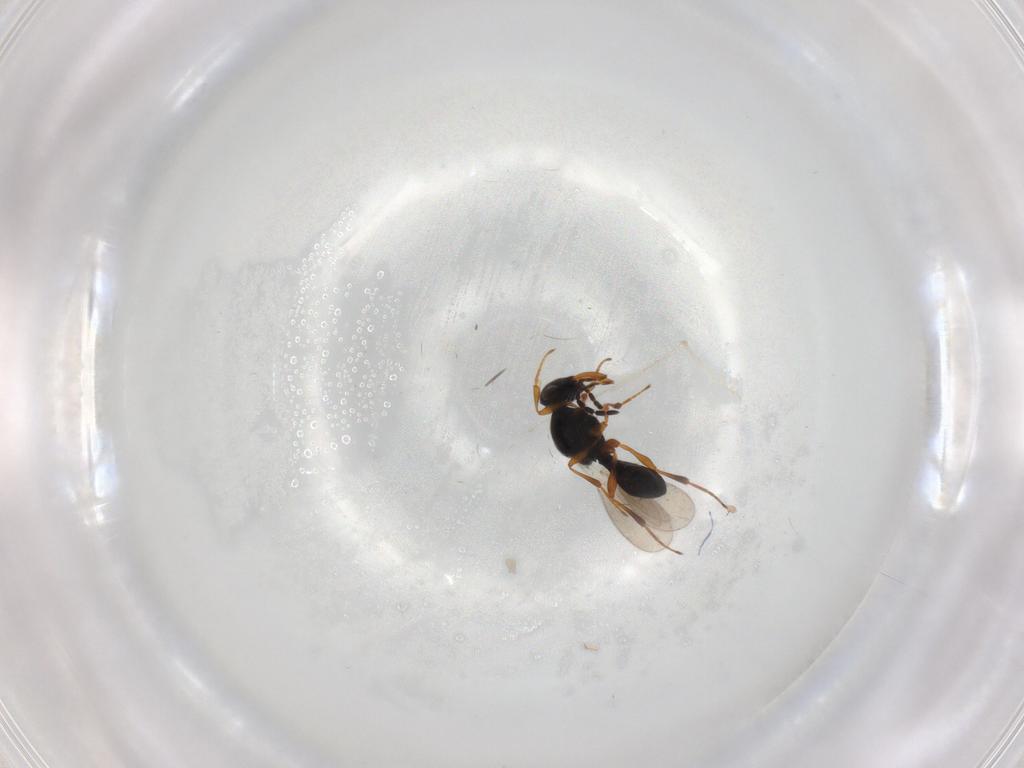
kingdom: Animalia
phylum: Arthropoda
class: Insecta
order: Hymenoptera
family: Platygastridae
